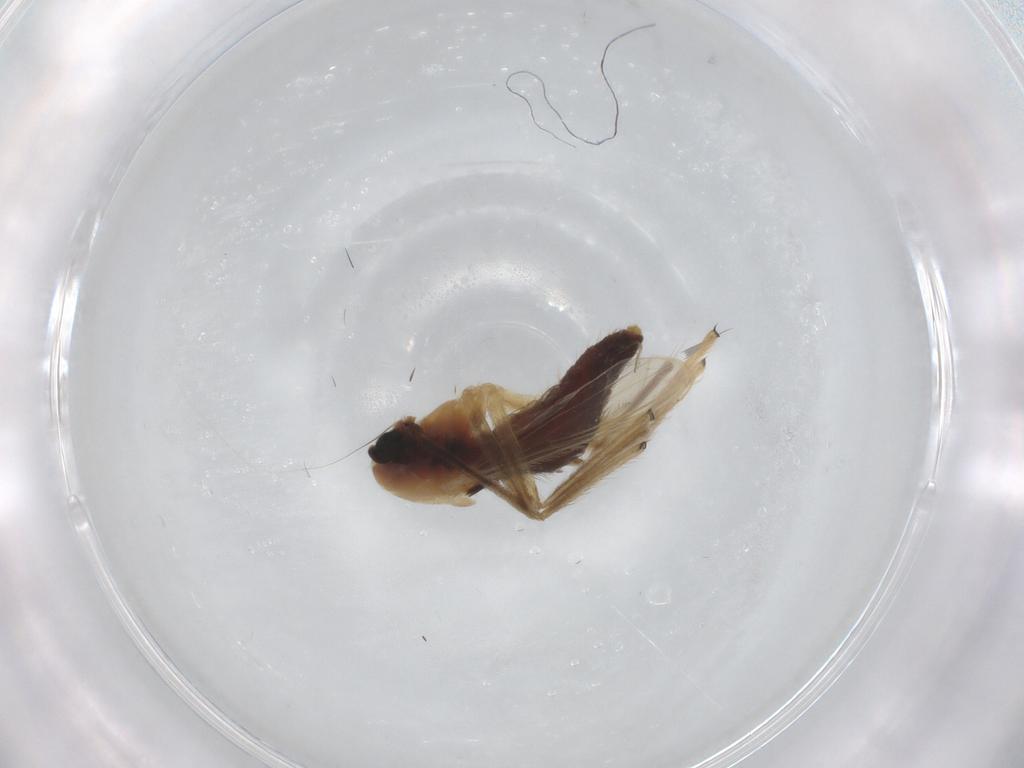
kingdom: Animalia
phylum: Arthropoda
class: Insecta
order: Diptera
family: Chironomidae
